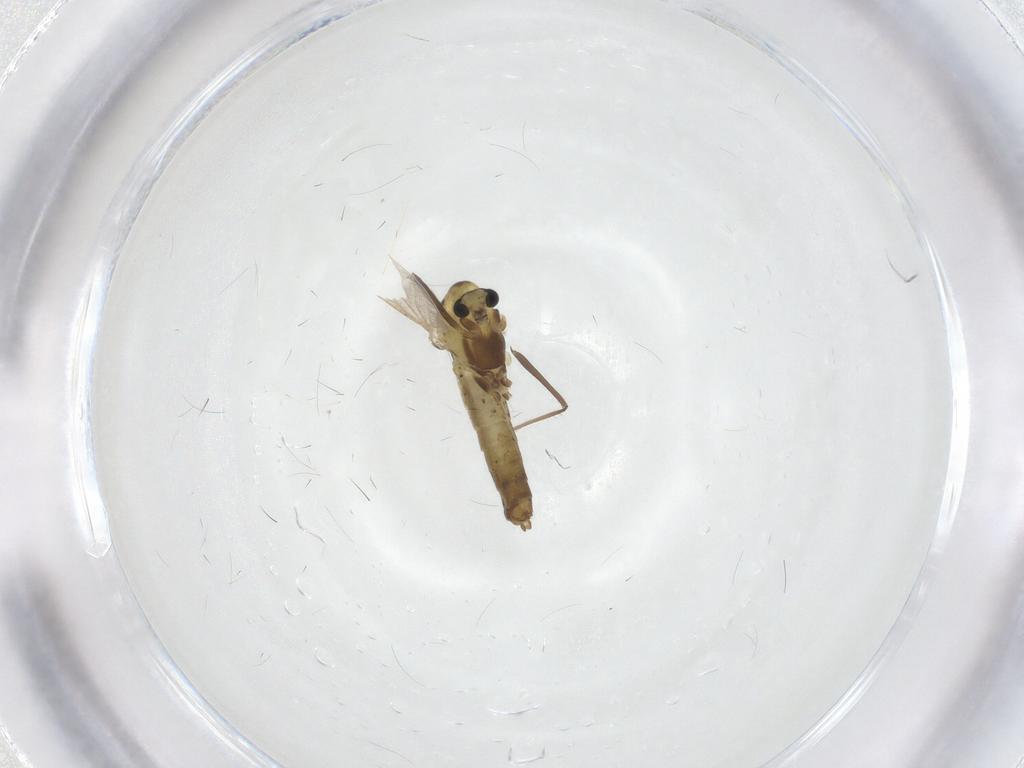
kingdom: Animalia
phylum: Arthropoda
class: Insecta
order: Diptera
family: Chironomidae
